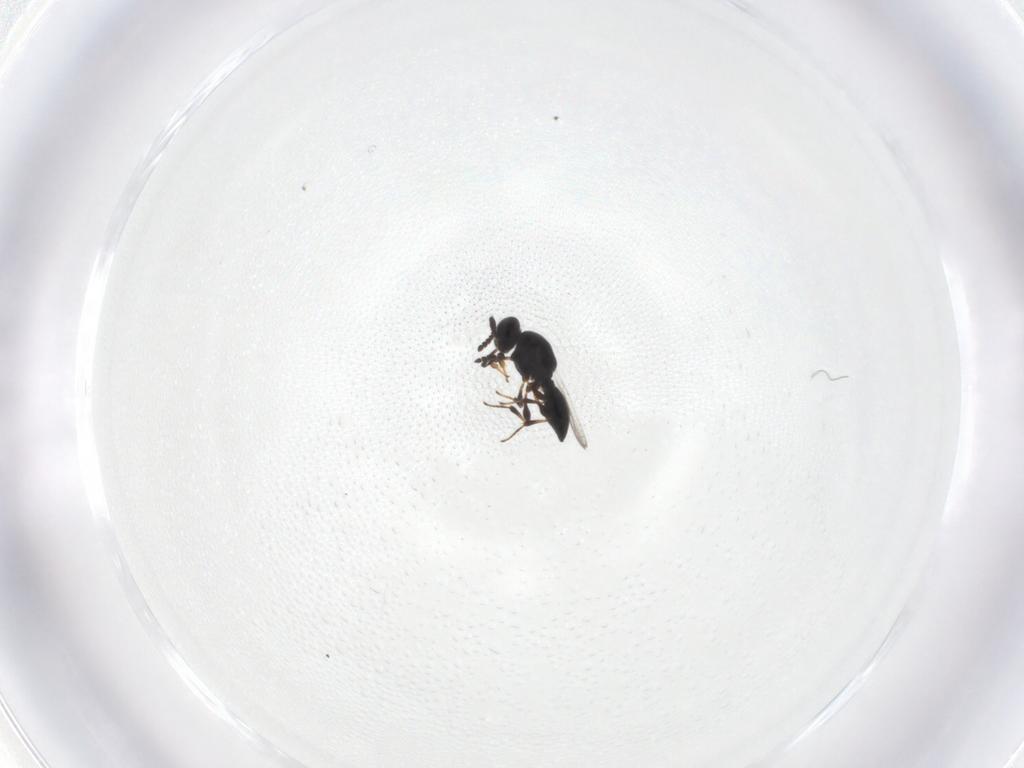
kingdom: Animalia
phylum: Arthropoda
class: Insecta
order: Hymenoptera
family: Platygastridae
